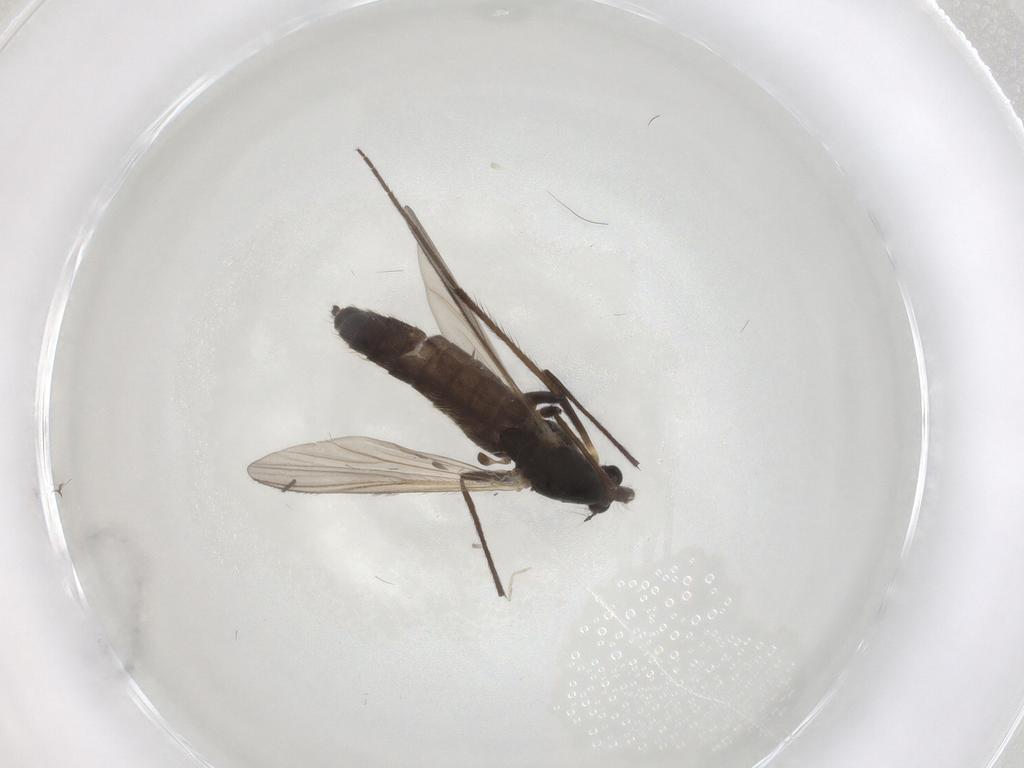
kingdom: Animalia
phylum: Arthropoda
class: Insecta
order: Diptera
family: Chironomidae
